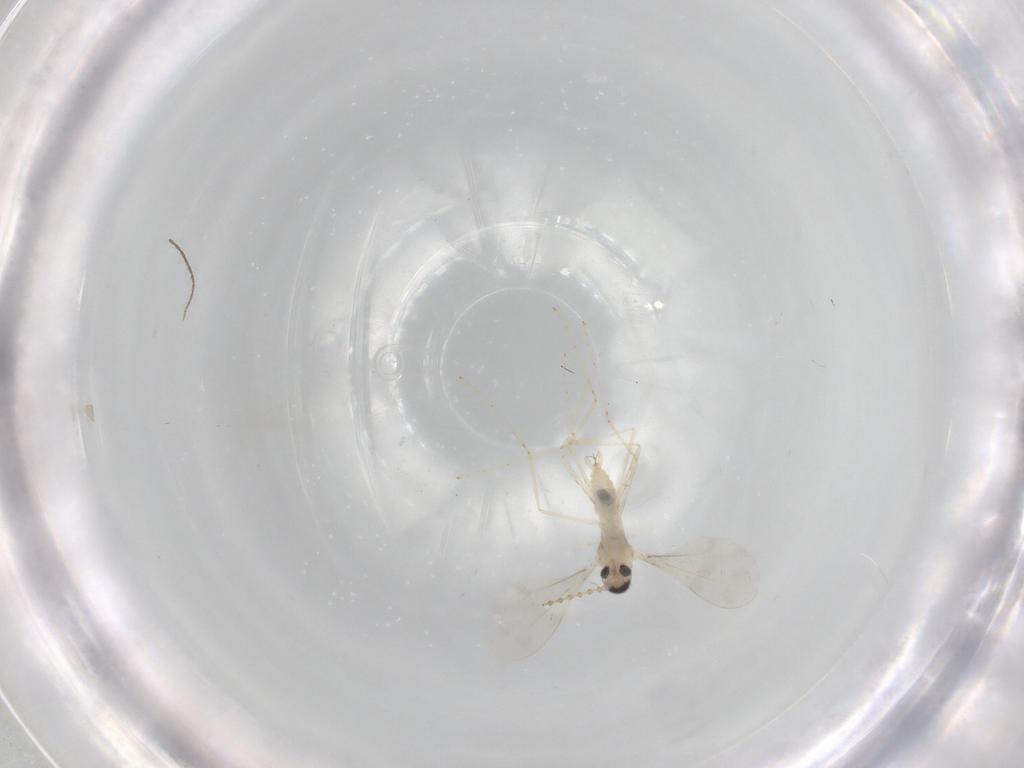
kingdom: Animalia
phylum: Arthropoda
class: Insecta
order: Diptera
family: Cecidomyiidae
